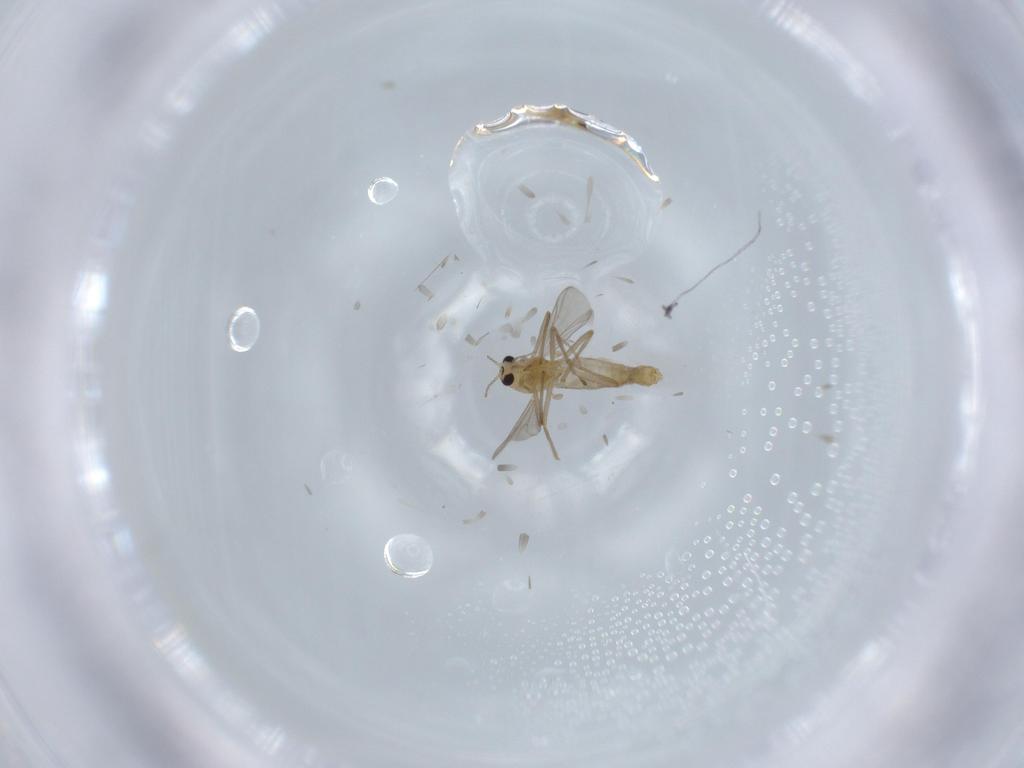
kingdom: Animalia
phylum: Arthropoda
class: Insecta
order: Diptera
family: Chironomidae
